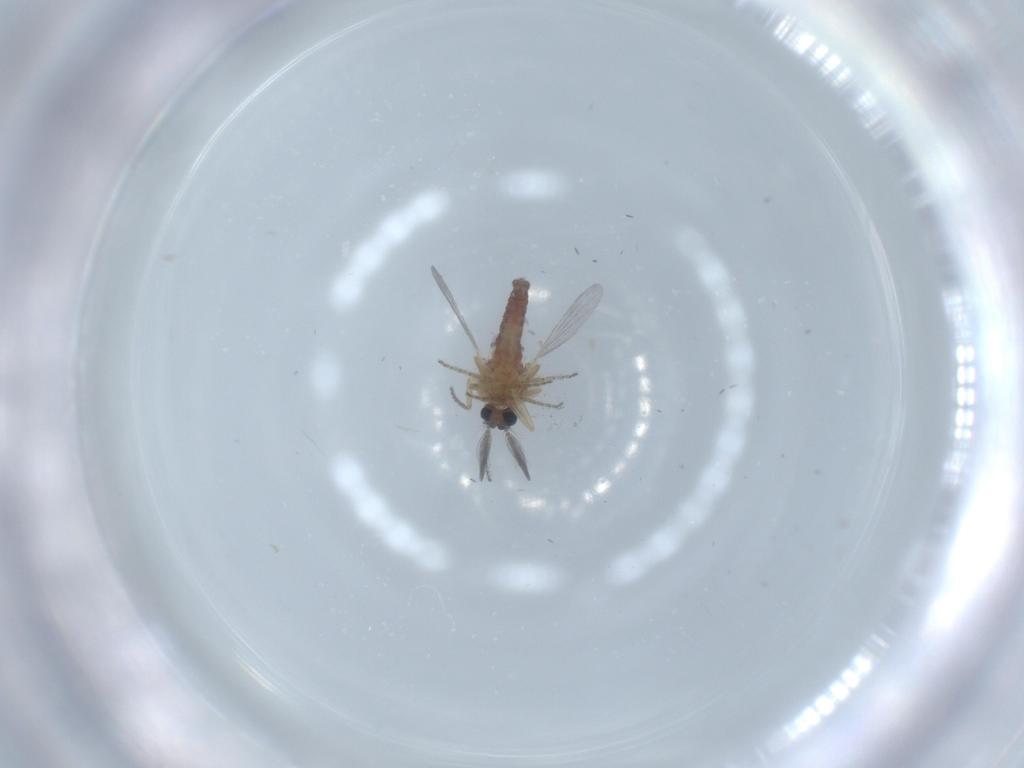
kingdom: Animalia
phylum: Arthropoda
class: Insecta
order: Diptera
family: Ceratopogonidae
